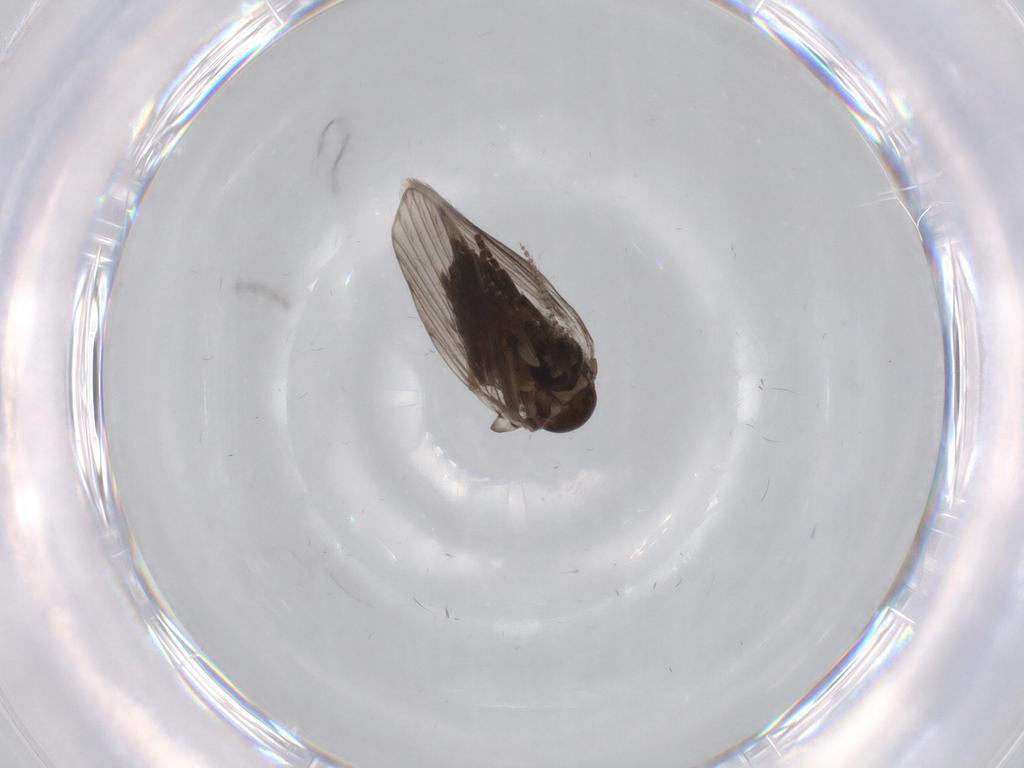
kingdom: Animalia
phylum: Arthropoda
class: Insecta
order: Diptera
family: Psychodidae
